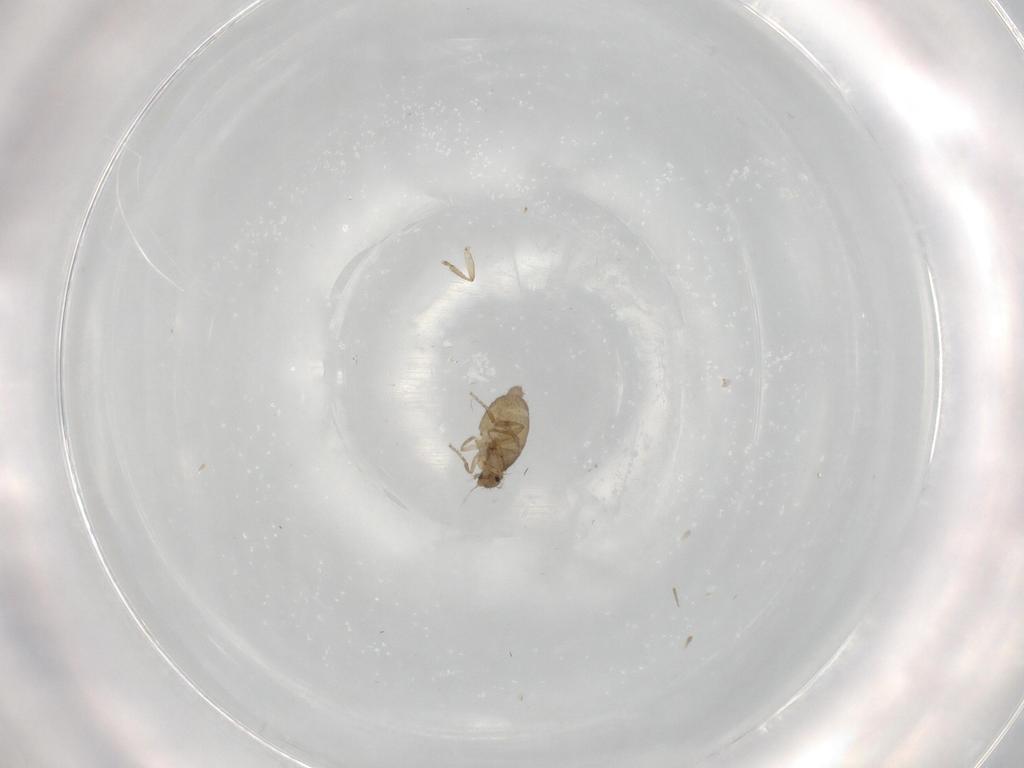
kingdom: Animalia
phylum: Arthropoda
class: Insecta
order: Diptera
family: Phoridae
